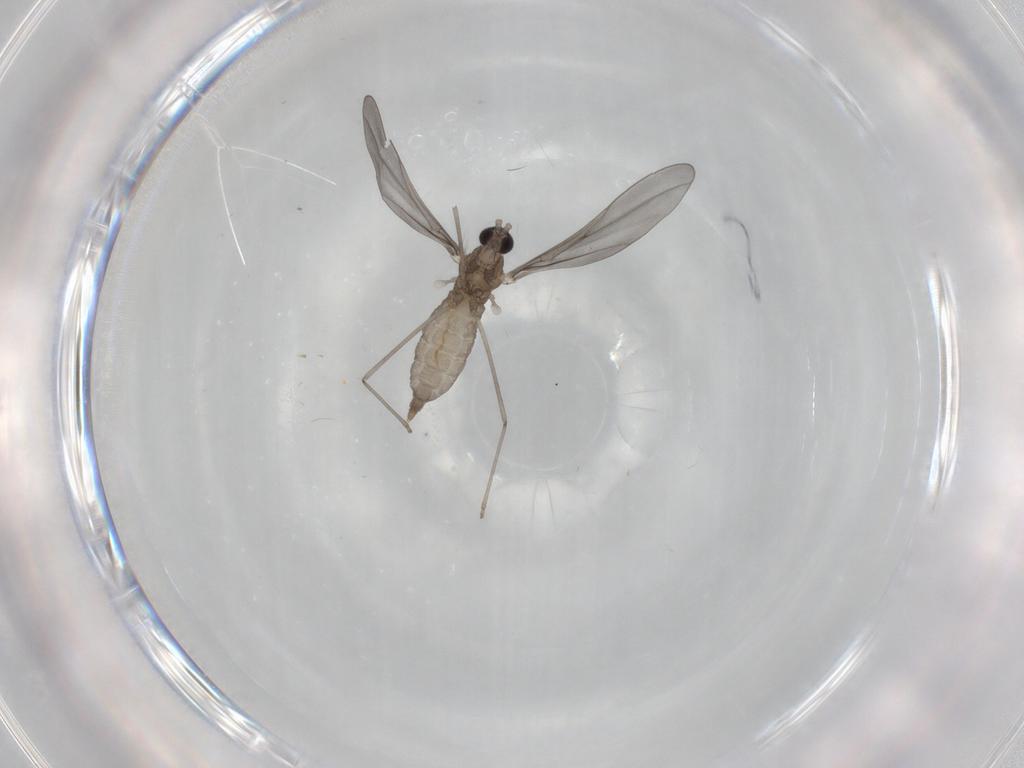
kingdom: Animalia
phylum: Arthropoda
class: Insecta
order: Diptera
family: Cecidomyiidae
